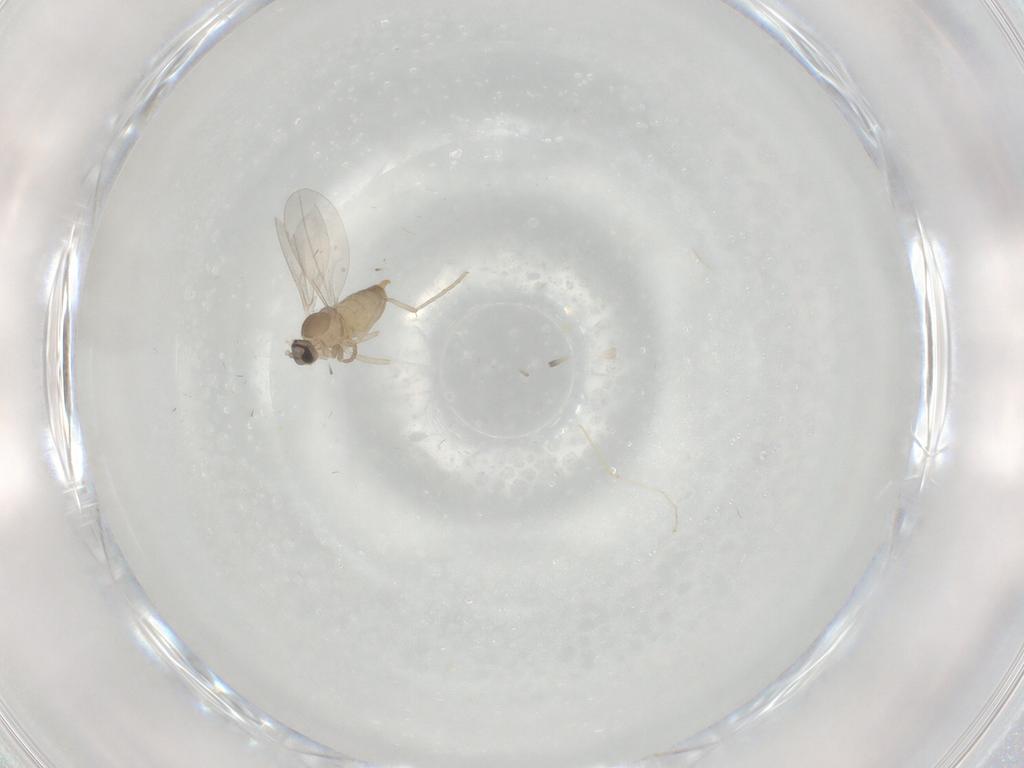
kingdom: Animalia
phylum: Arthropoda
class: Insecta
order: Diptera
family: Cecidomyiidae
